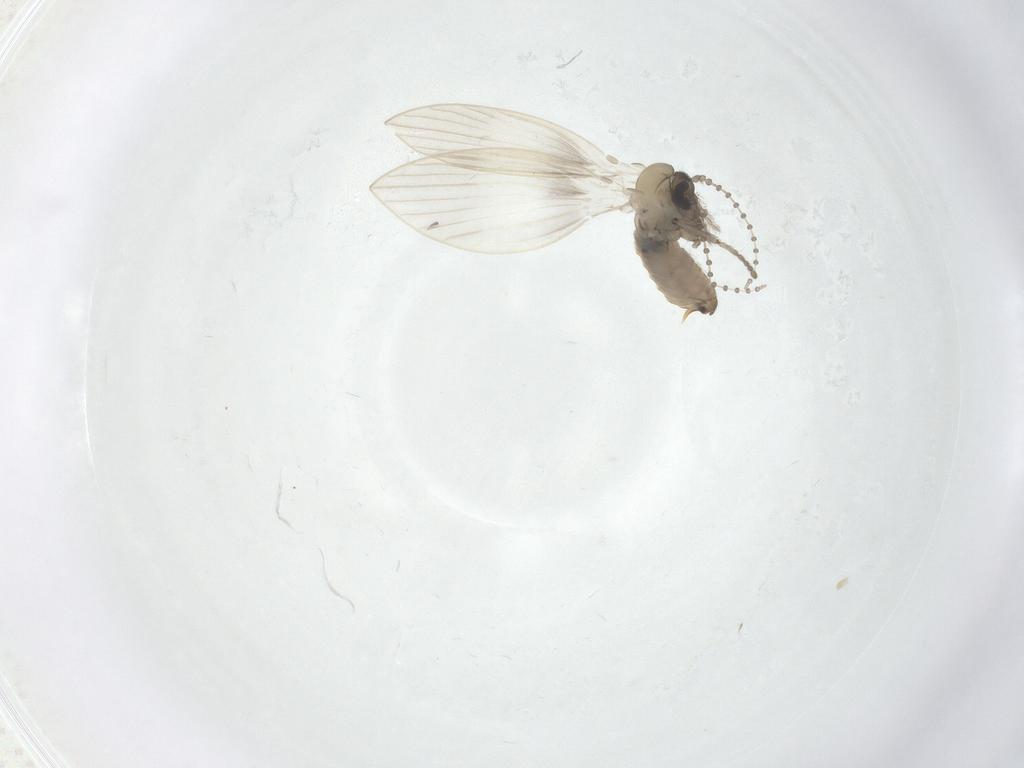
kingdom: Animalia
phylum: Arthropoda
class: Insecta
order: Diptera
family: Psychodidae
